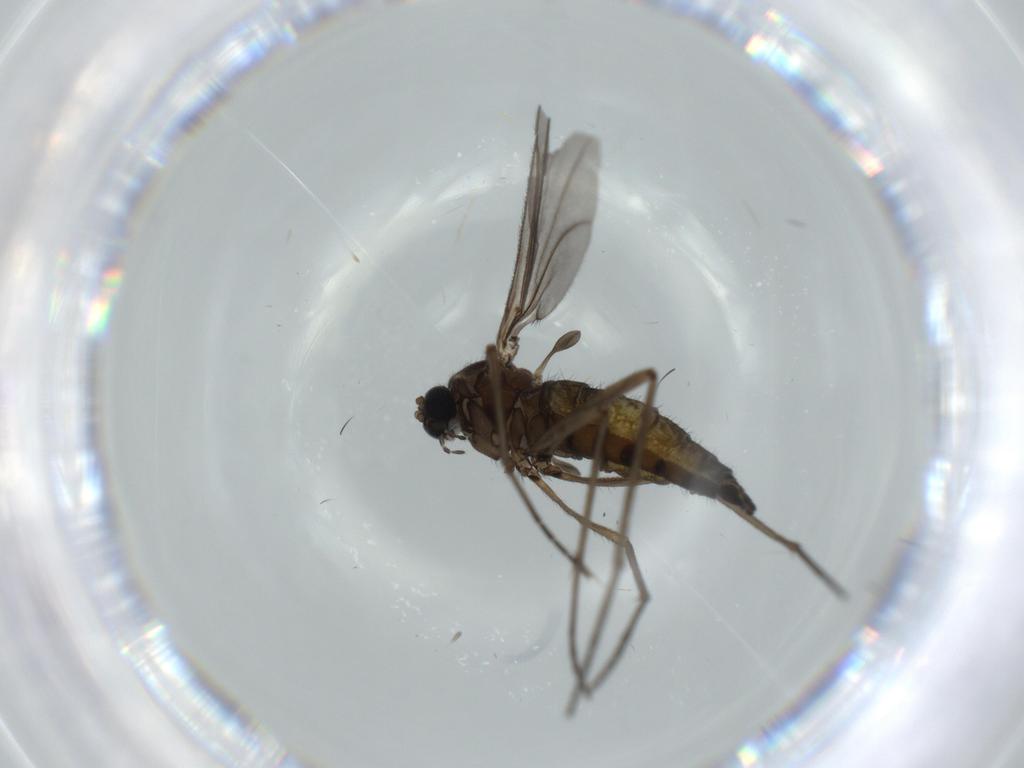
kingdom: Animalia
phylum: Arthropoda
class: Insecta
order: Diptera
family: Sciaridae
